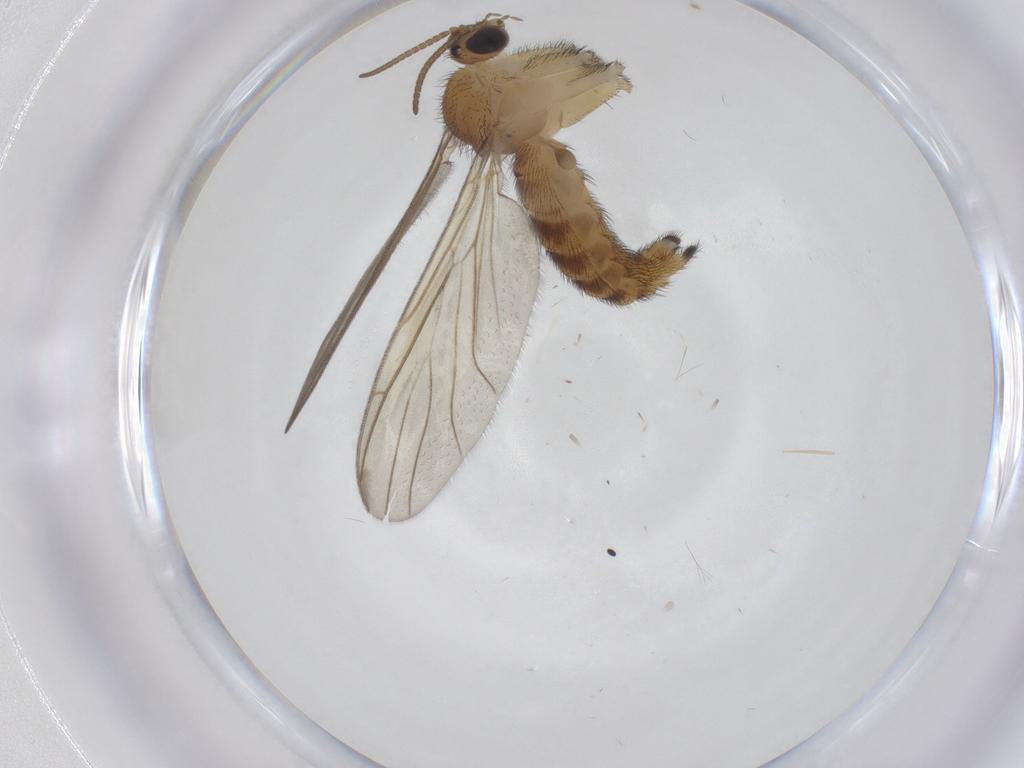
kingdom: Animalia
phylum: Arthropoda
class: Insecta
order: Diptera
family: Keroplatidae
